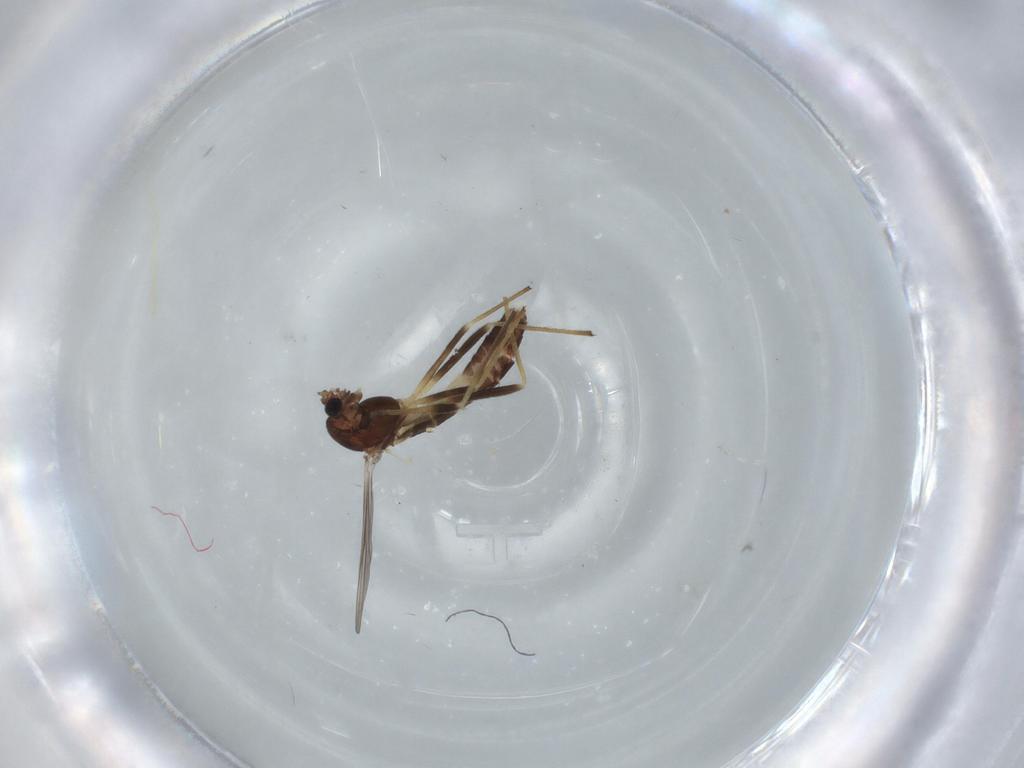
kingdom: Animalia
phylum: Arthropoda
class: Insecta
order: Diptera
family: Chironomidae
